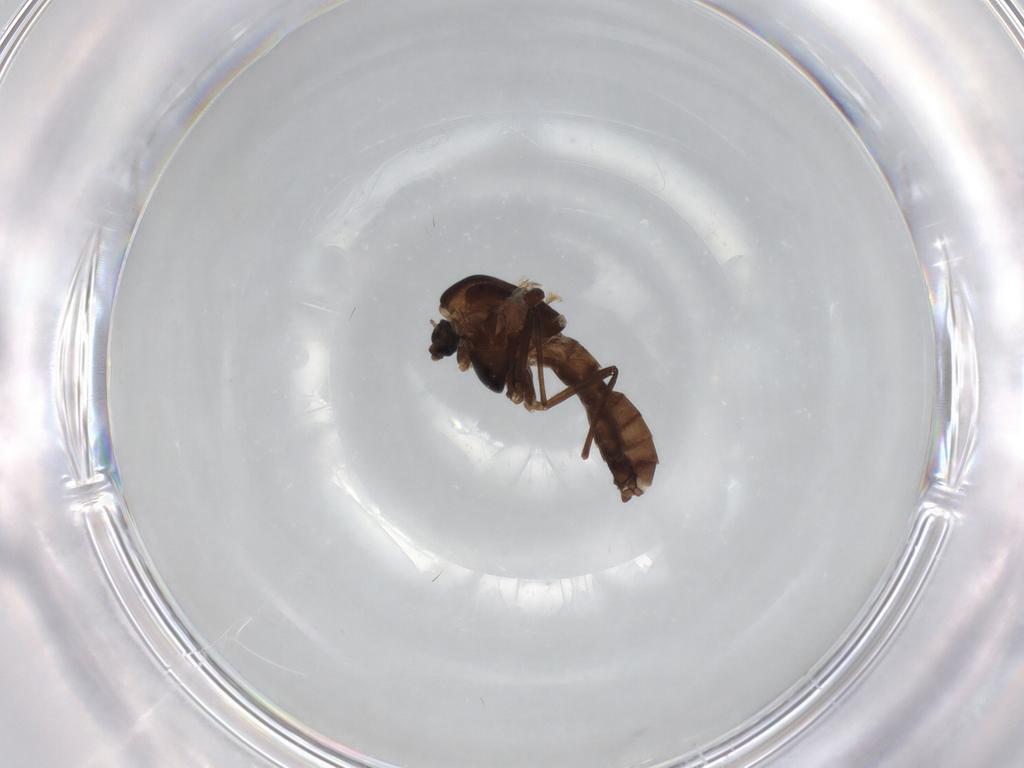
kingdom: Animalia
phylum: Arthropoda
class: Insecta
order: Diptera
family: Chironomidae
